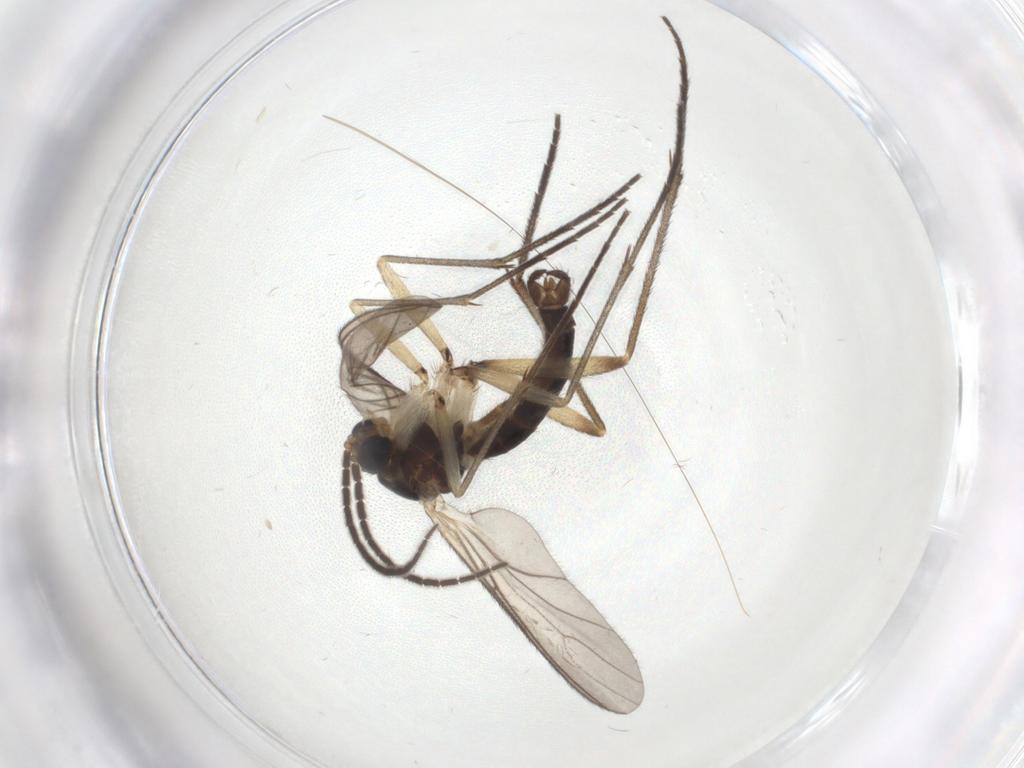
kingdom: Animalia
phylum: Arthropoda
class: Insecta
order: Diptera
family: Sciaridae
